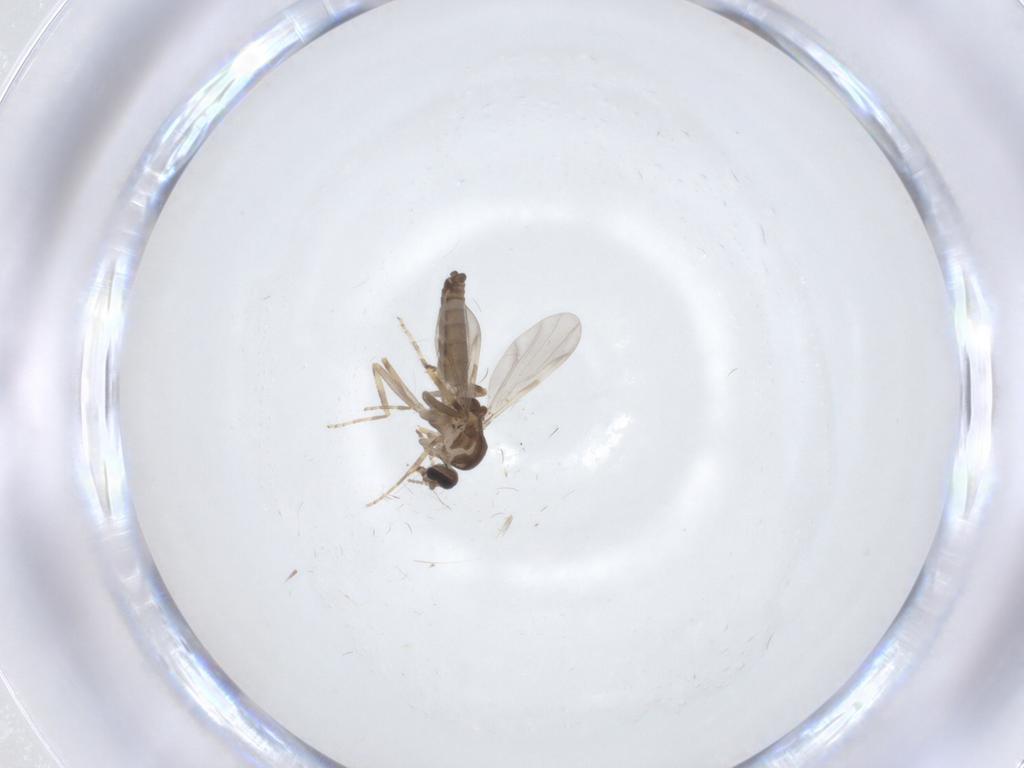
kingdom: Animalia
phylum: Arthropoda
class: Insecta
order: Diptera
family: Ceratopogonidae
